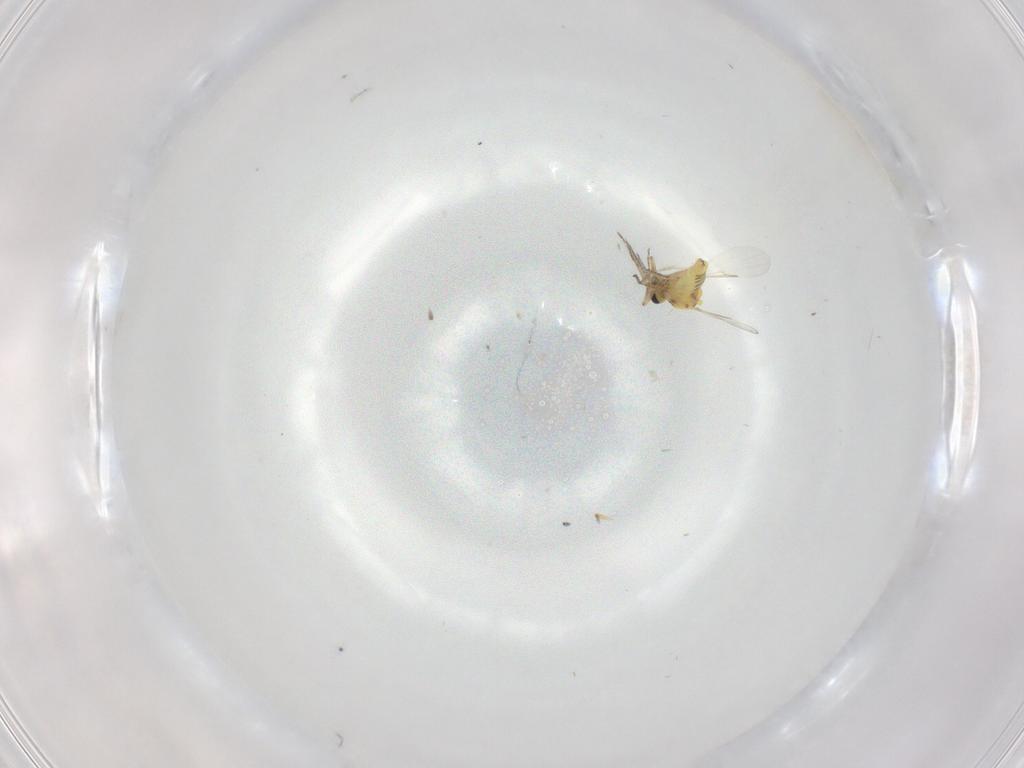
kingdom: Animalia
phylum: Arthropoda
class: Insecta
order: Diptera
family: Ceratopogonidae
